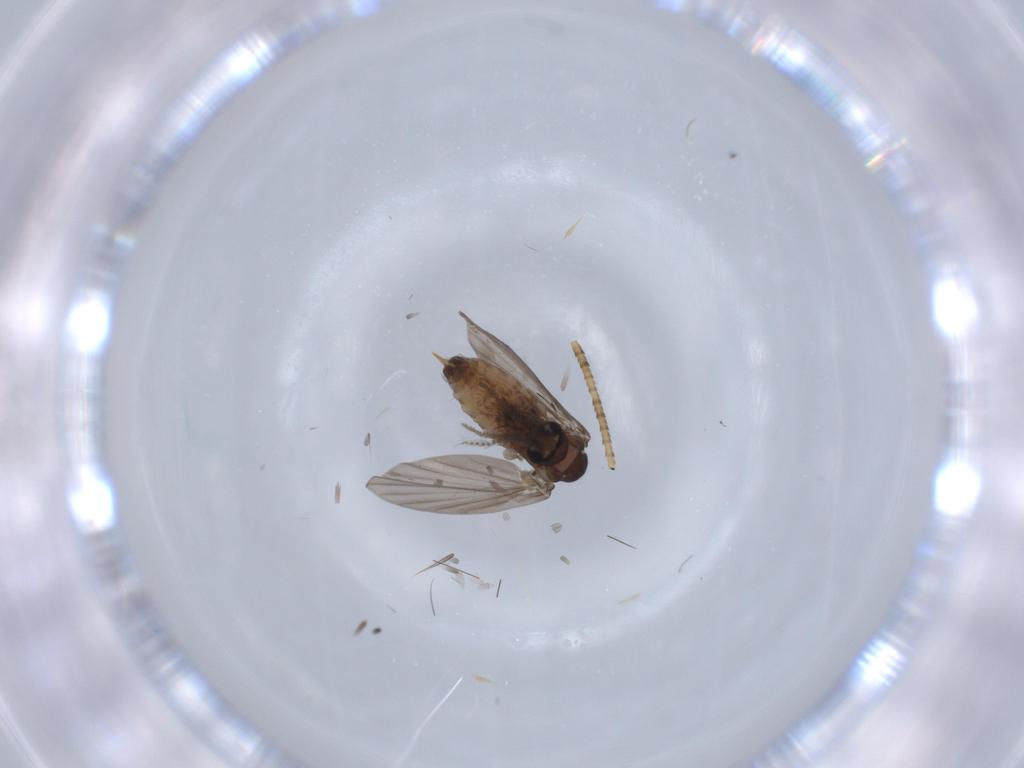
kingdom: Animalia
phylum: Arthropoda
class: Insecta
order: Diptera
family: Psychodidae
